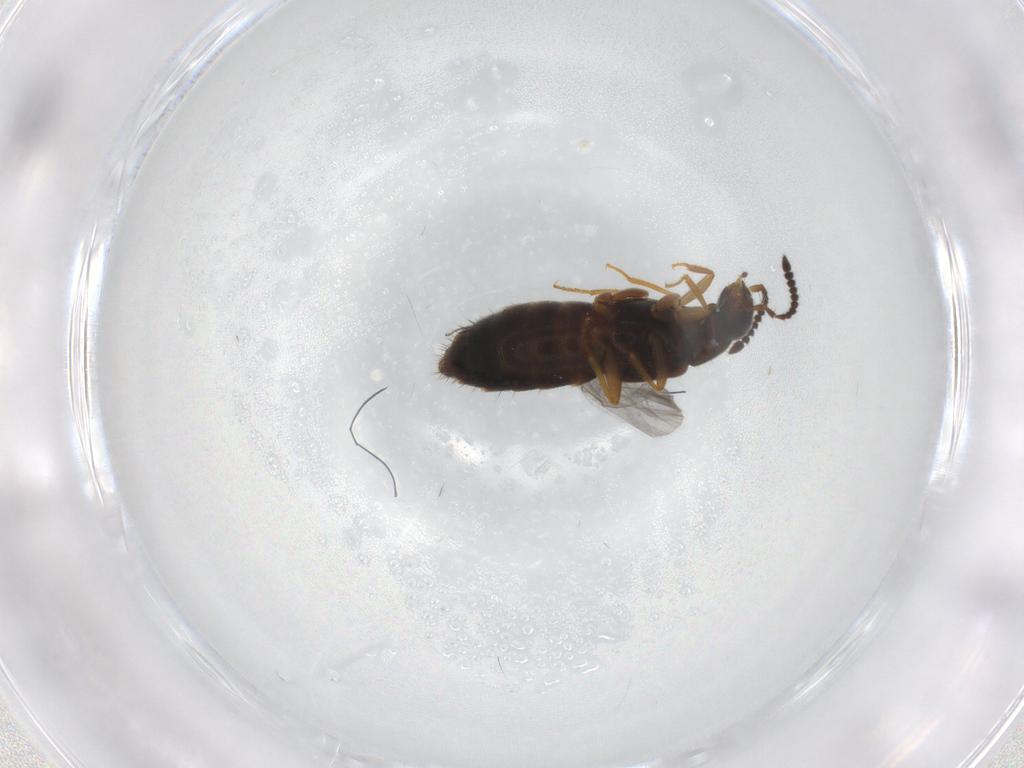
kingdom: Animalia
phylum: Arthropoda
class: Insecta
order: Coleoptera
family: Staphylinidae
